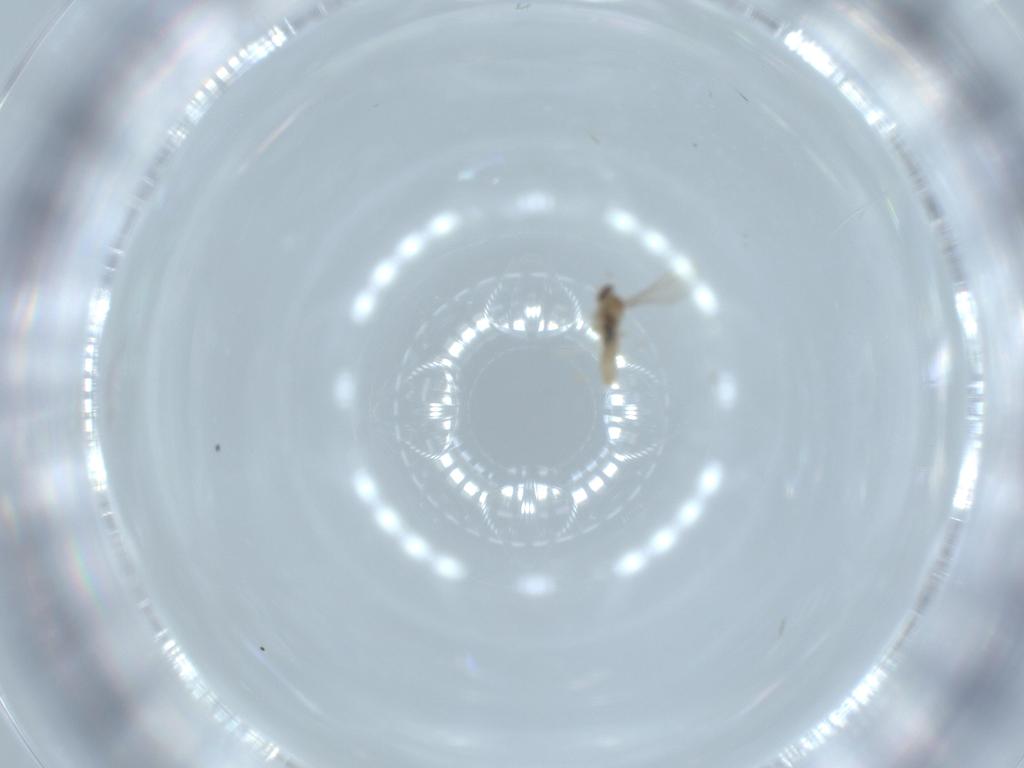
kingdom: Animalia
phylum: Arthropoda
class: Insecta
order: Diptera
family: Cecidomyiidae
